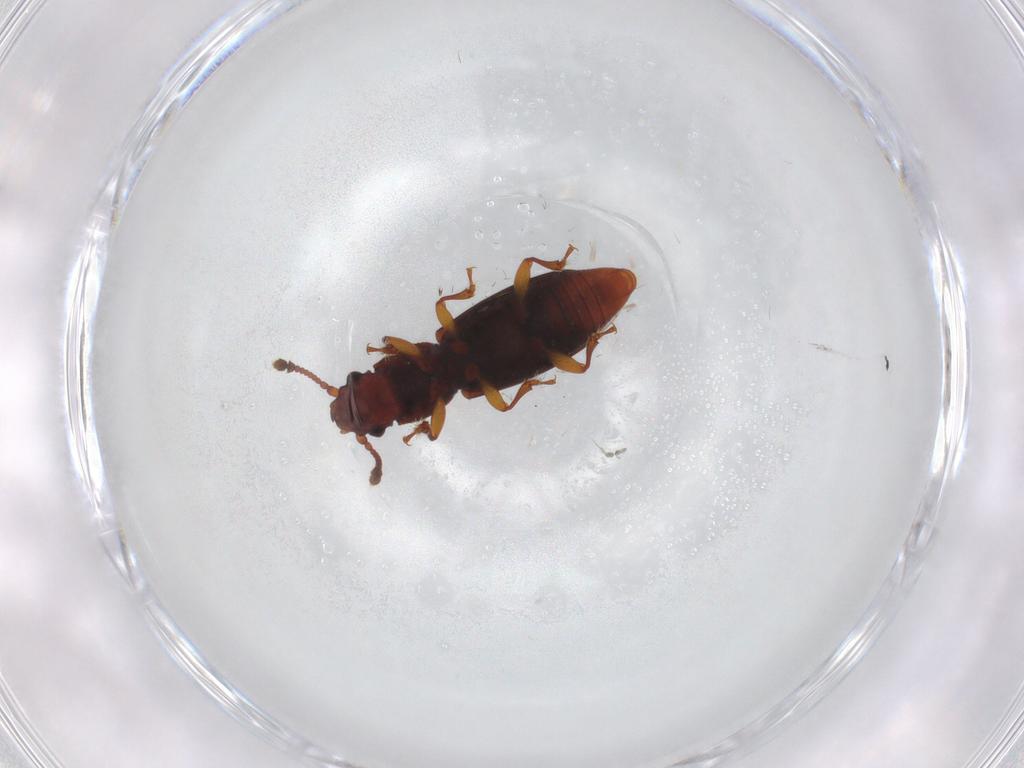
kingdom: Animalia
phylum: Arthropoda
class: Insecta
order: Coleoptera
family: Monotomidae
